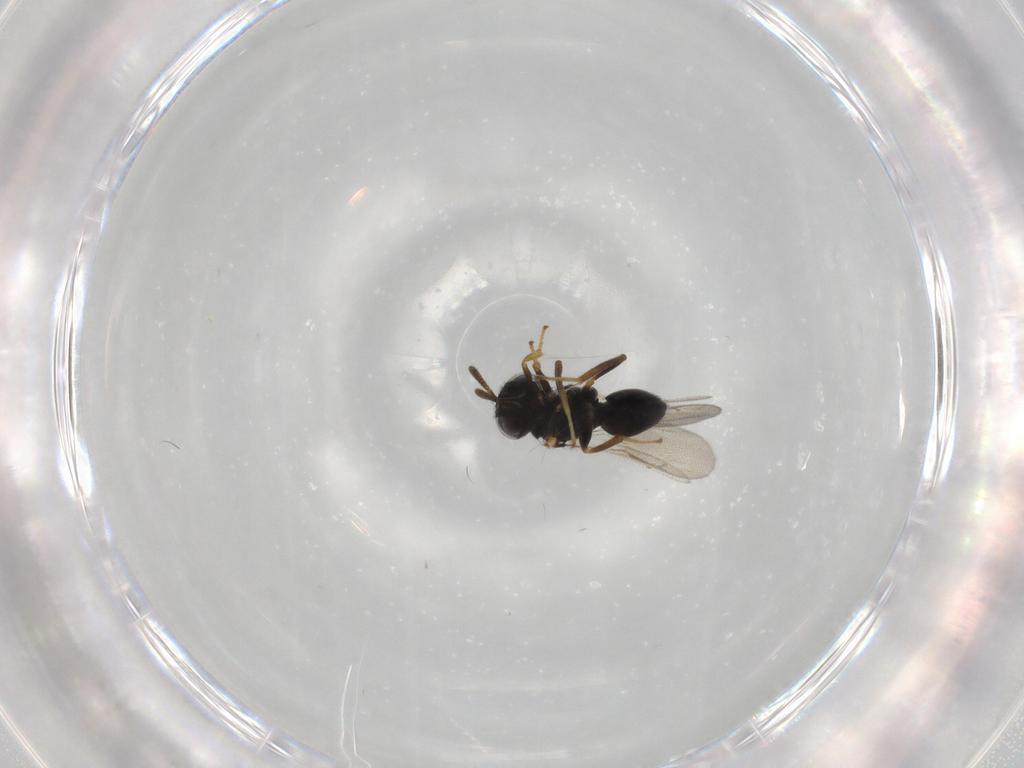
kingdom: Animalia
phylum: Arthropoda
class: Insecta
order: Hymenoptera
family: Pteromalidae
